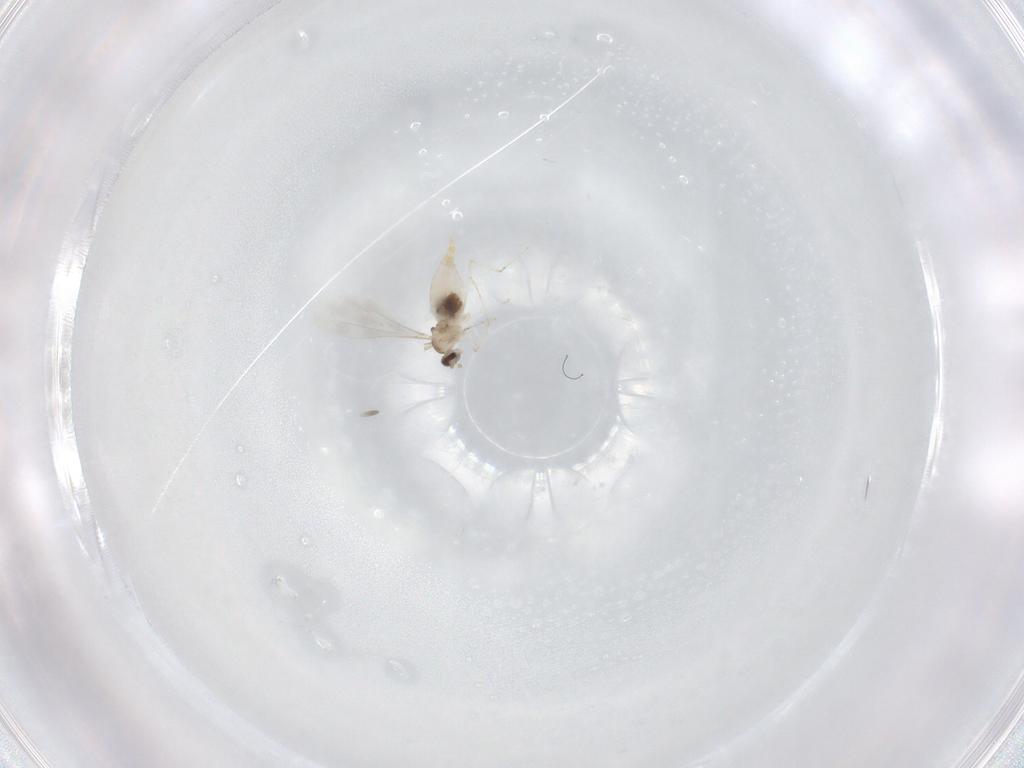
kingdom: Animalia
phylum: Arthropoda
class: Insecta
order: Diptera
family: Cecidomyiidae
